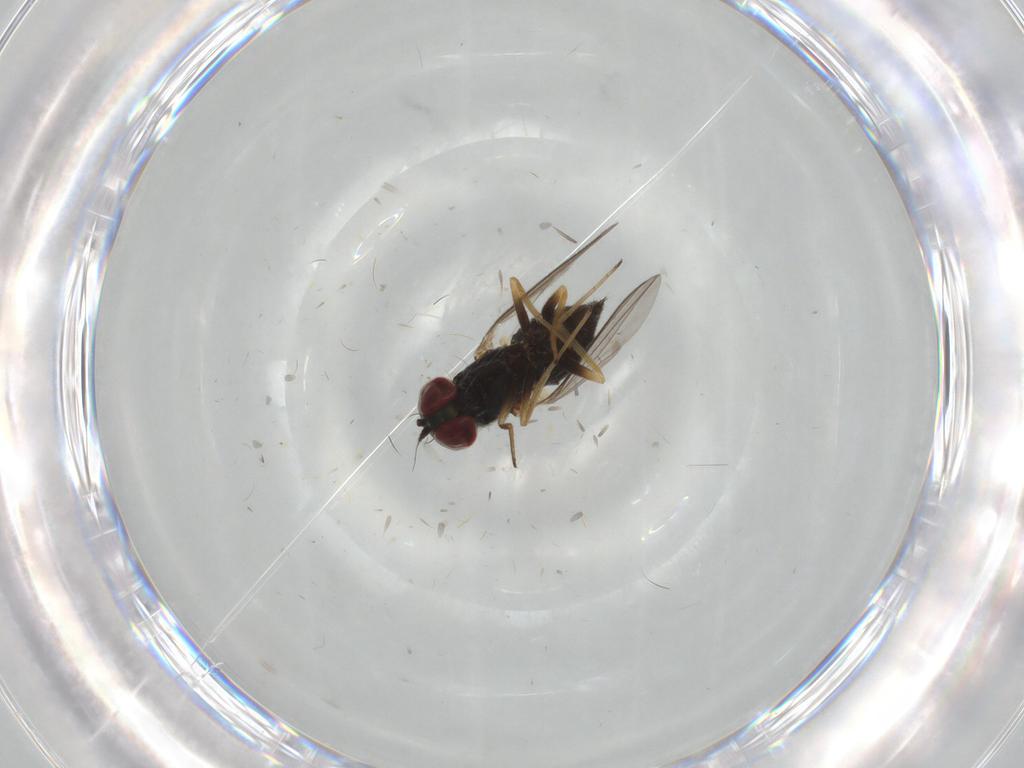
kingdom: Animalia
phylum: Arthropoda
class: Insecta
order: Diptera
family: Dolichopodidae
